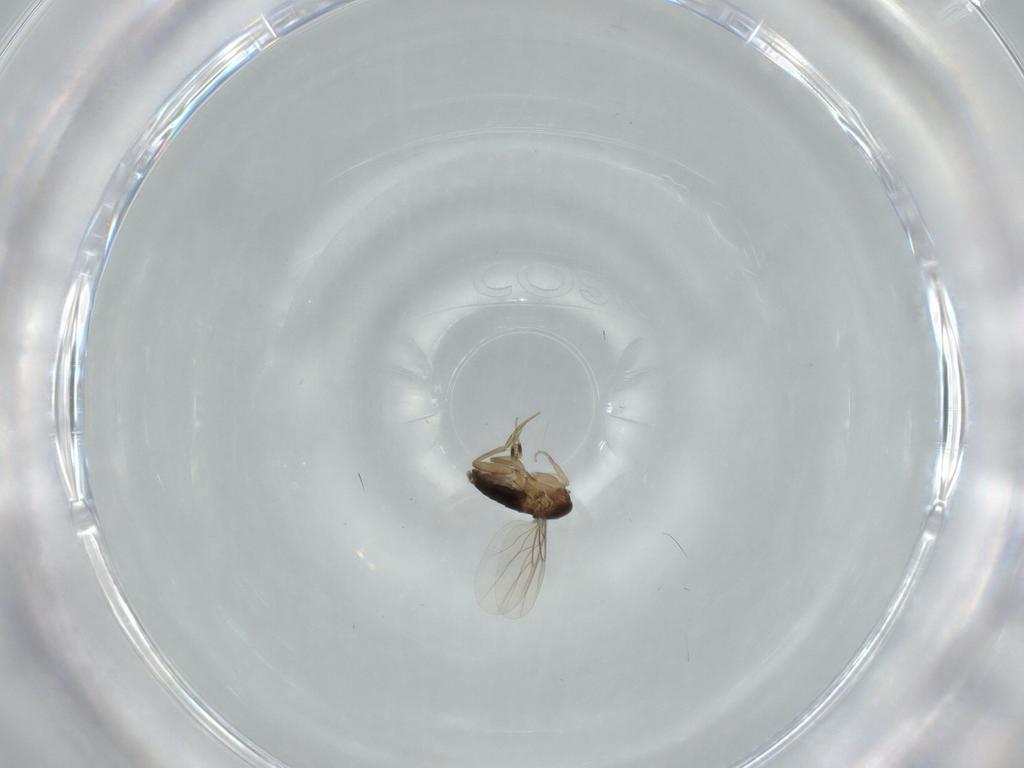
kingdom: Animalia
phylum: Arthropoda
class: Insecta
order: Diptera
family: Phoridae
